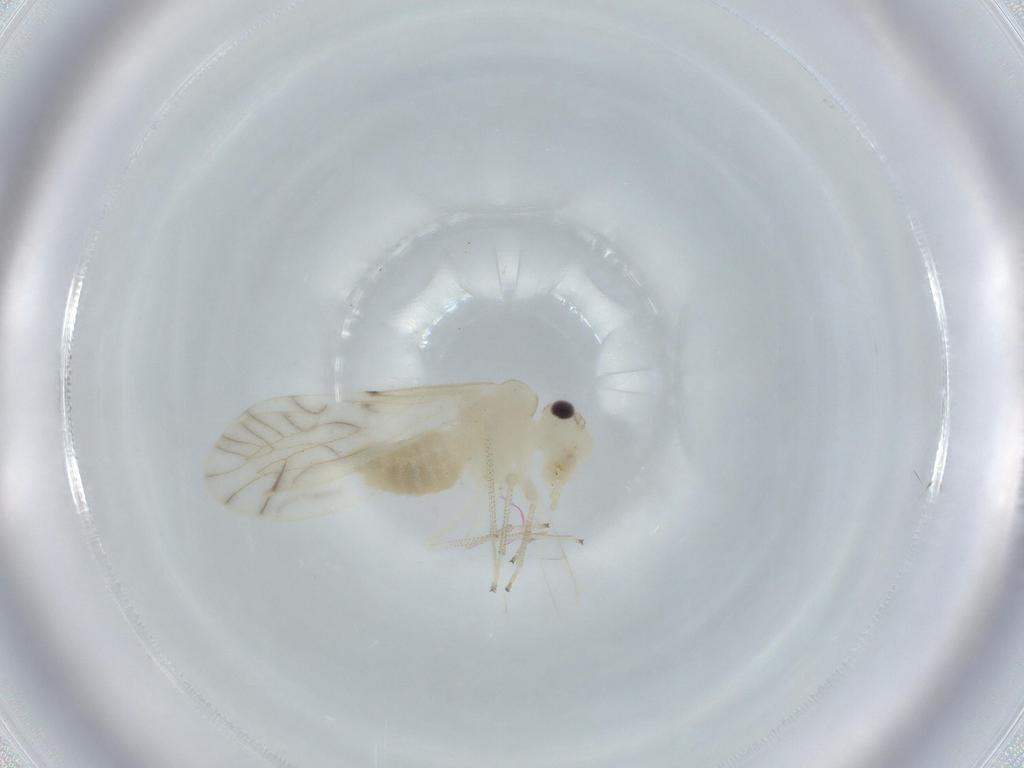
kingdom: Animalia
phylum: Arthropoda
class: Insecta
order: Psocodea
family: Caeciliusidae
